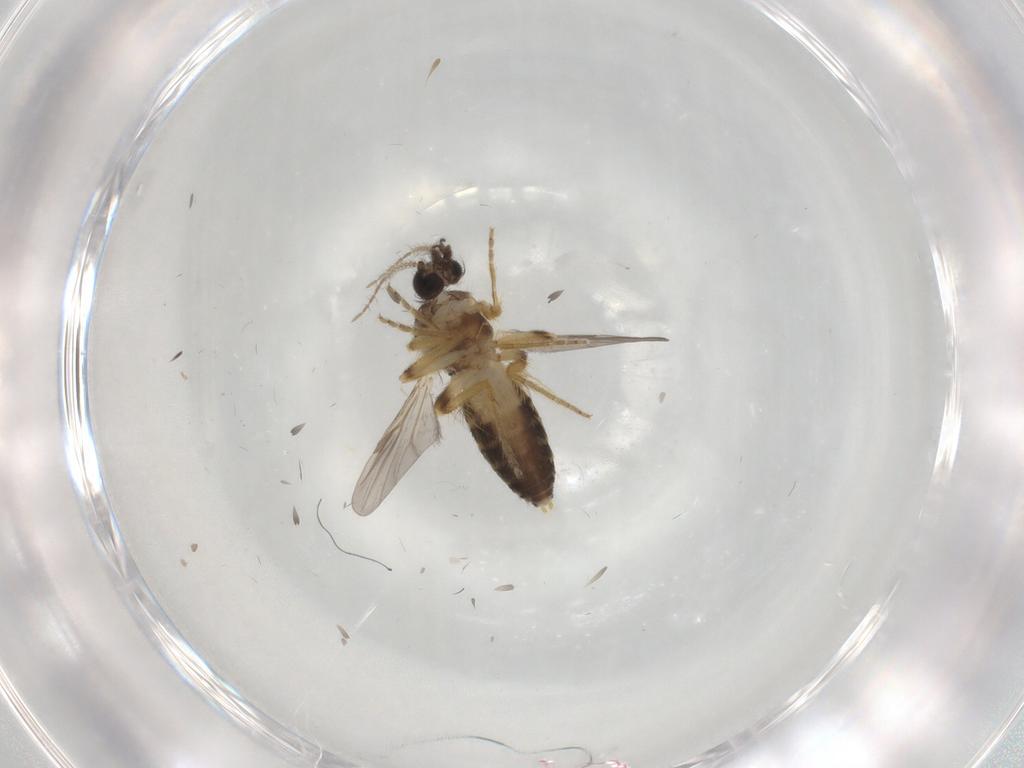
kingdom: Animalia
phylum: Arthropoda
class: Insecta
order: Diptera
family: Ceratopogonidae
